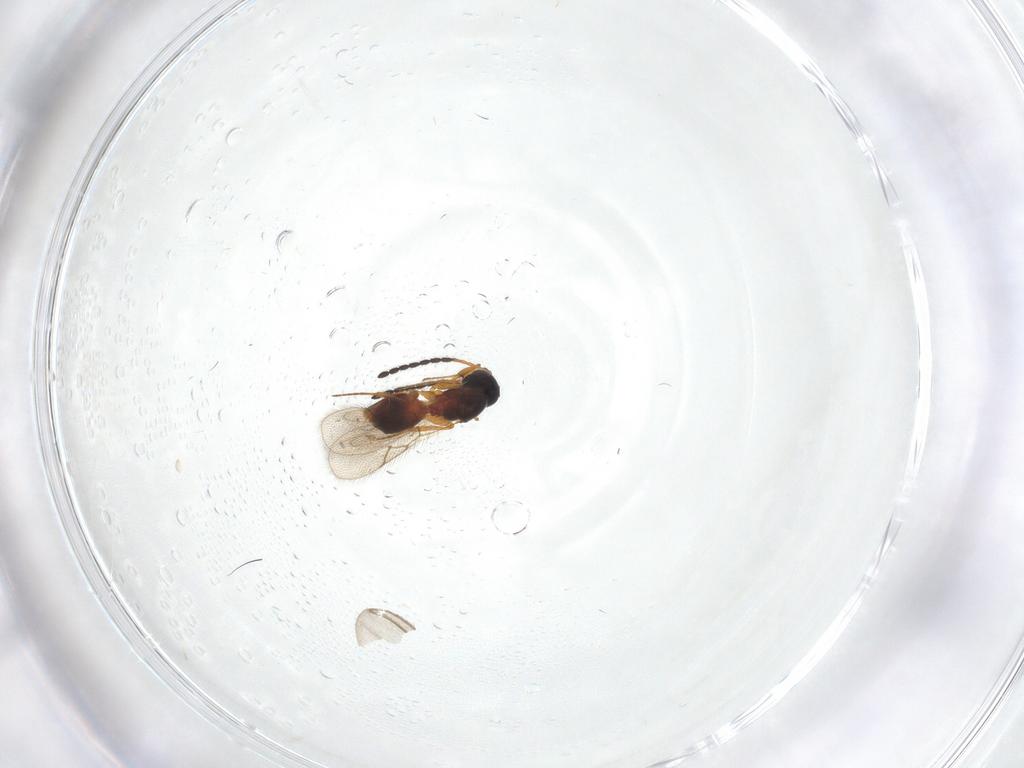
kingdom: Animalia
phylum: Arthropoda
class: Insecta
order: Hymenoptera
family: Figitidae
